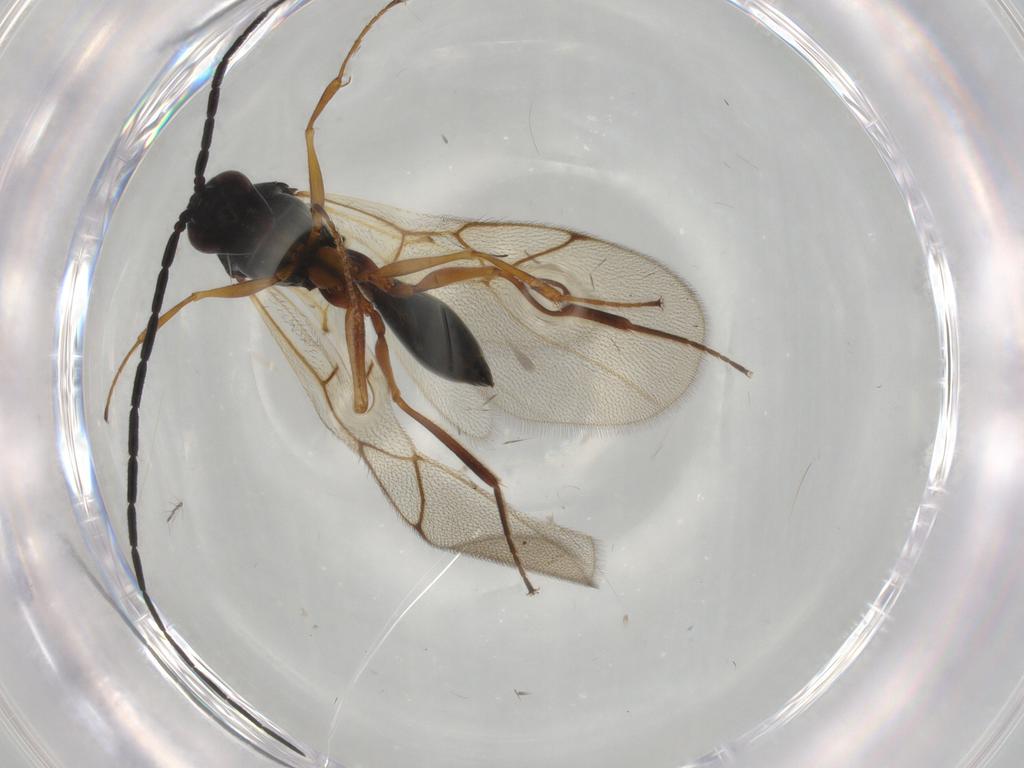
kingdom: Animalia
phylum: Arthropoda
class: Insecta
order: Hymenoptera
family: Figitidae
